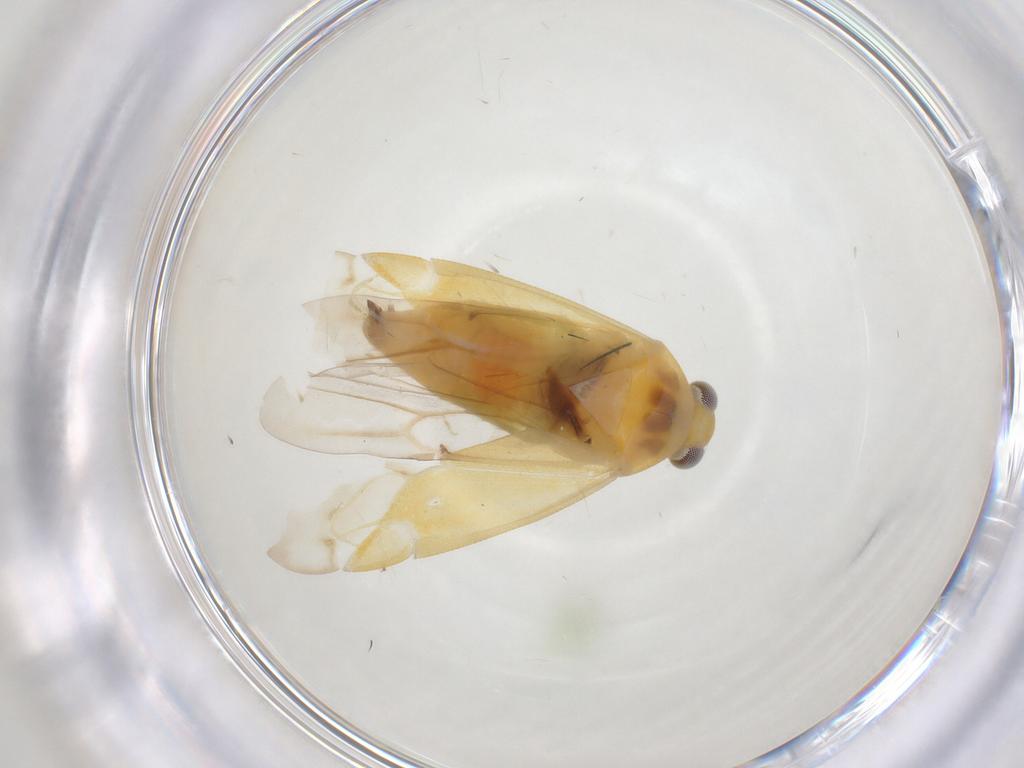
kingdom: Animalia
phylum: Arthropoda
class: Insecta
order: Hemiptera
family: Miridae
